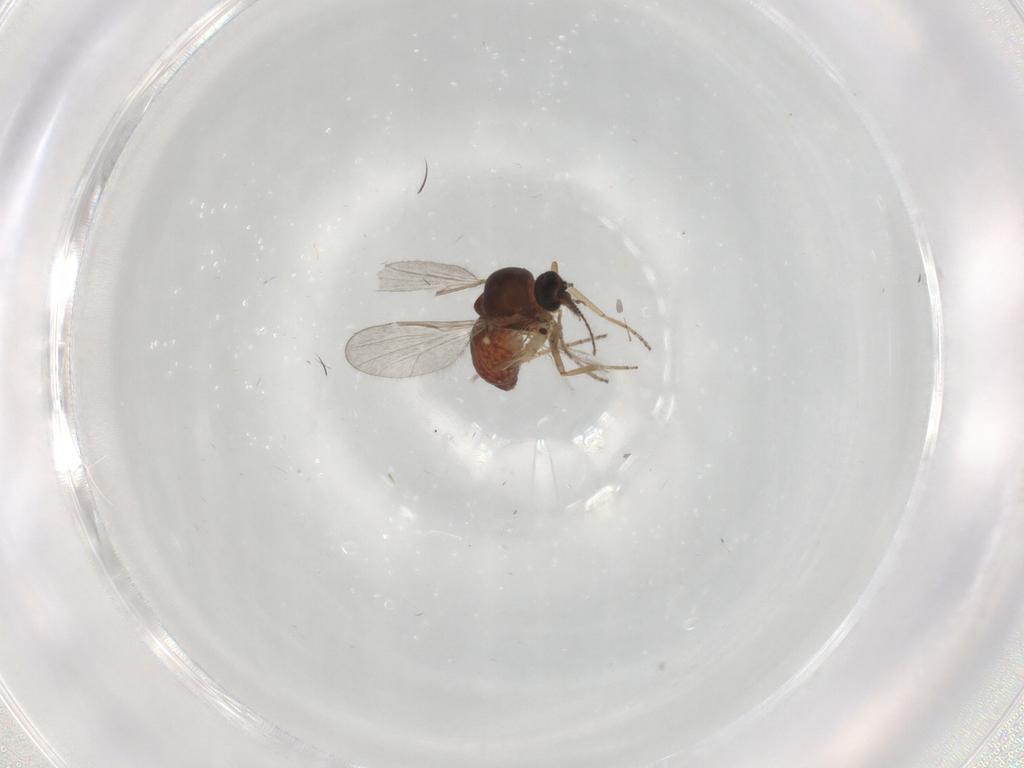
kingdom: Animalia
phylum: Arthropoda
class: Insecta
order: Diptera
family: Ceratopogonidae
